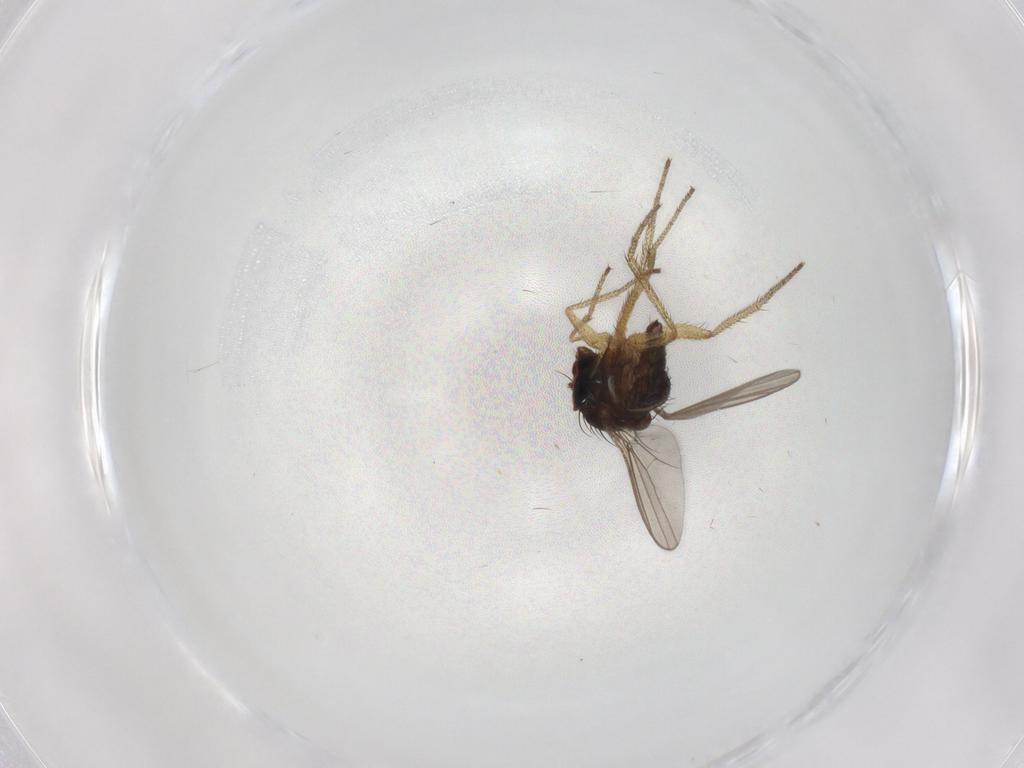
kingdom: Animalia
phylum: Arthropoda
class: Insecta
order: Diptera
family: Dolichopodidae
